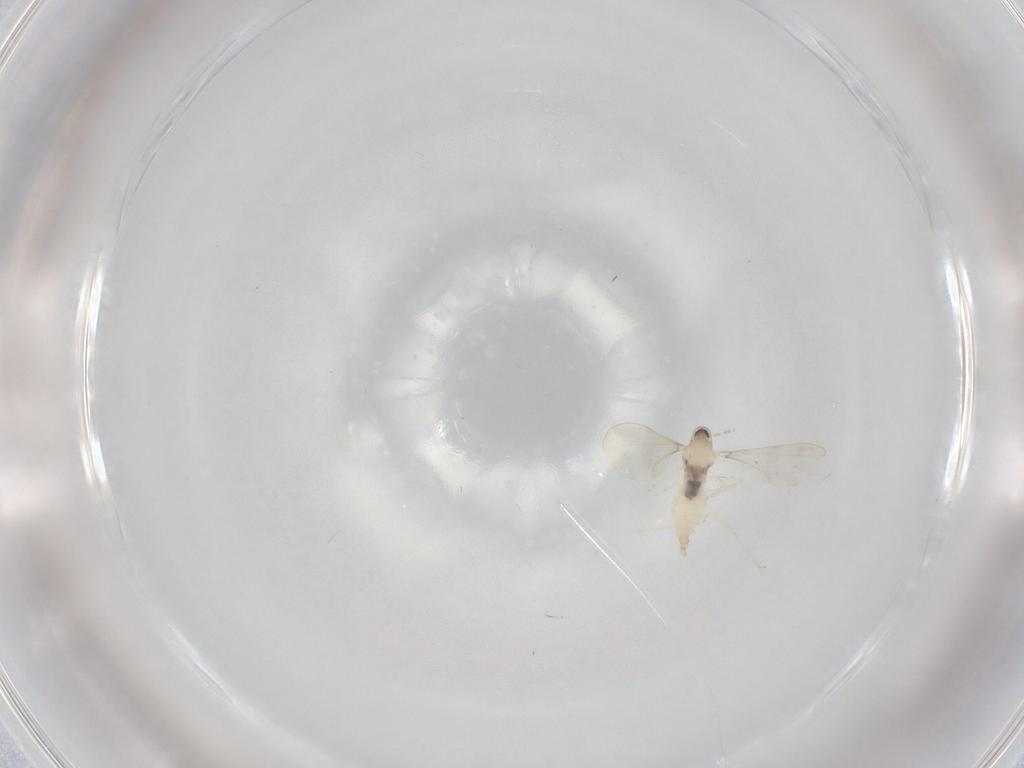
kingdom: Animalia
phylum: Arthropoda
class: Insecta
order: Diptera
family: Cecidomyiidae
